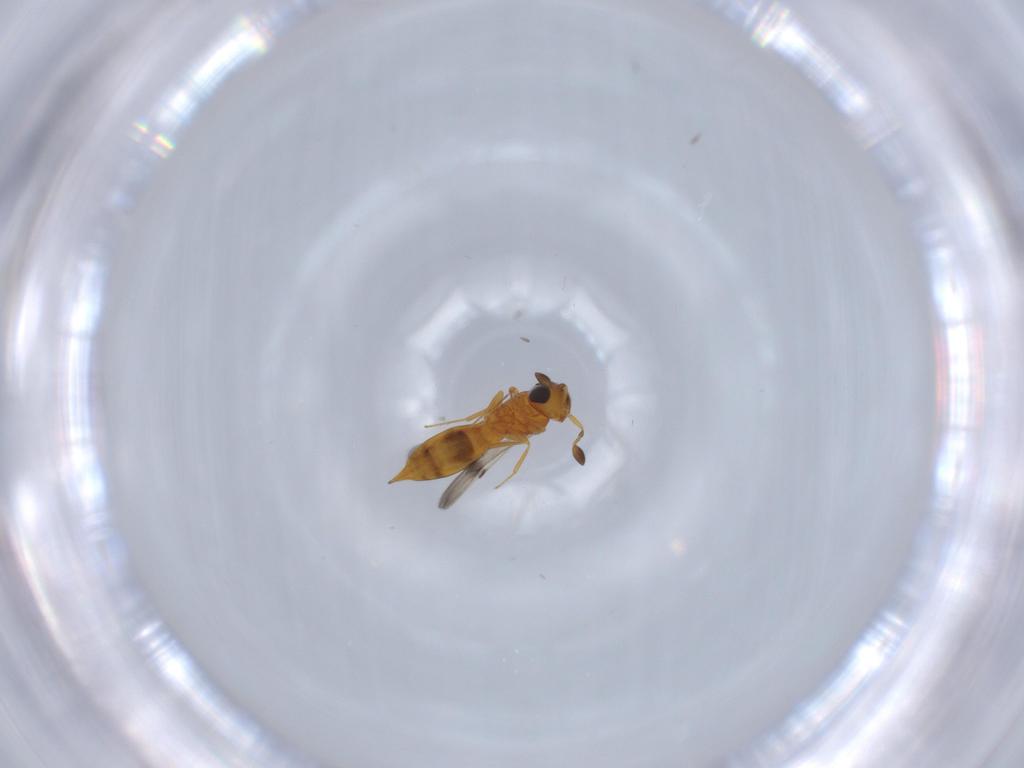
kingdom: Animalia
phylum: Arthropoda
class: Insecta
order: Hymenoptera
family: Scelionidae
